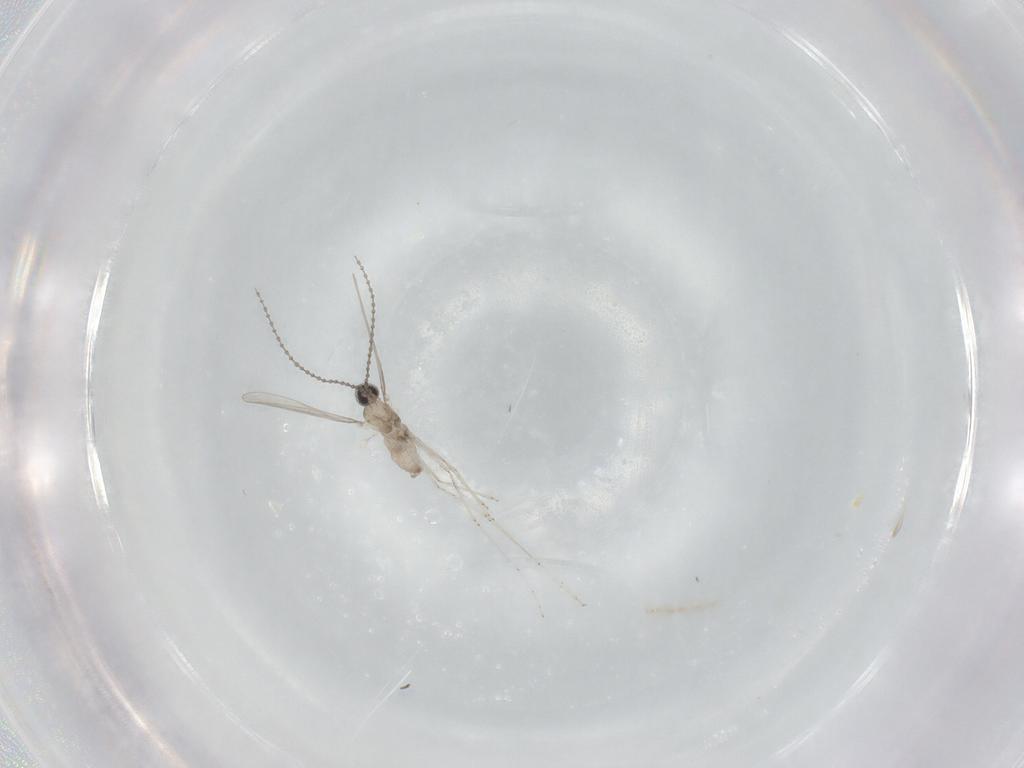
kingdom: Animalia
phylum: Arthropoda
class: Insecta
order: Diptera
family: Cecidomyiidae
